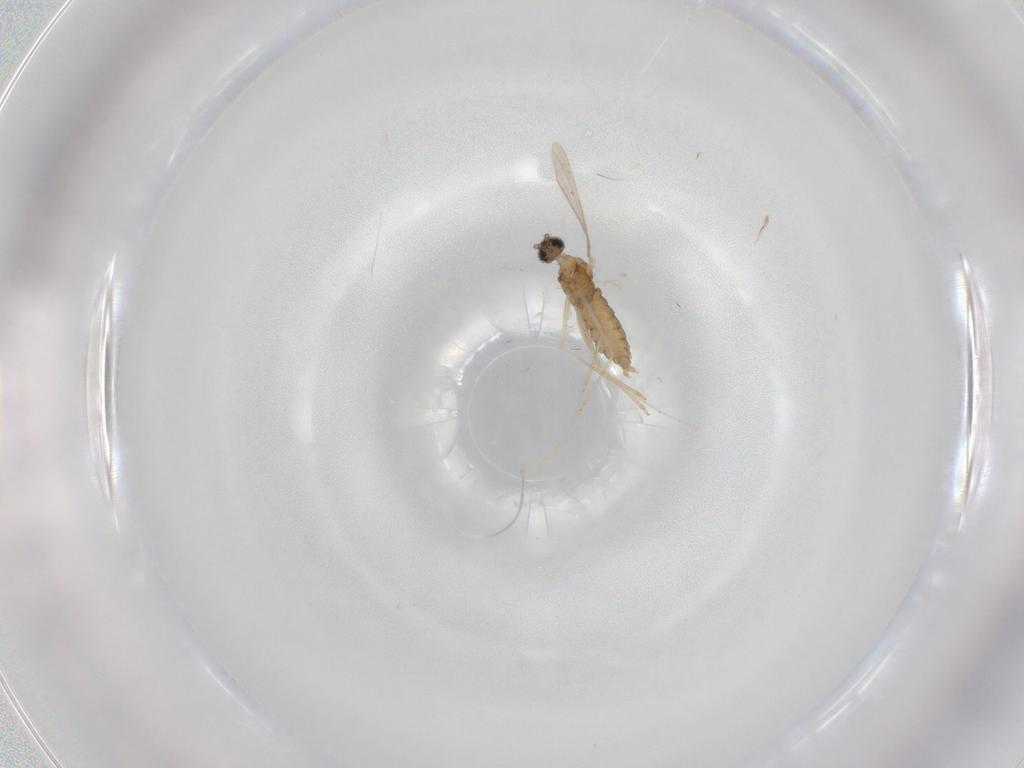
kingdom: Animalia
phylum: Arthropoda
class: Insecta
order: Diptera
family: Cecidomyiidae
